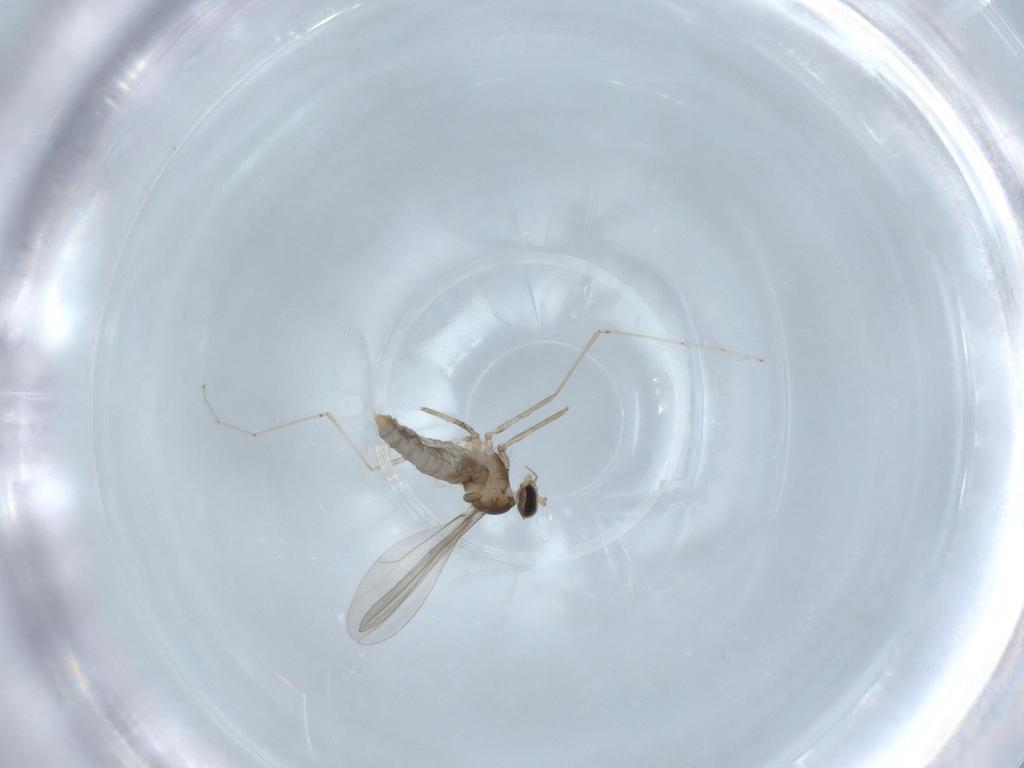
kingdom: Animalia
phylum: Arthropoda
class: Insecta
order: Diptera
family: Cecidomyiidae
